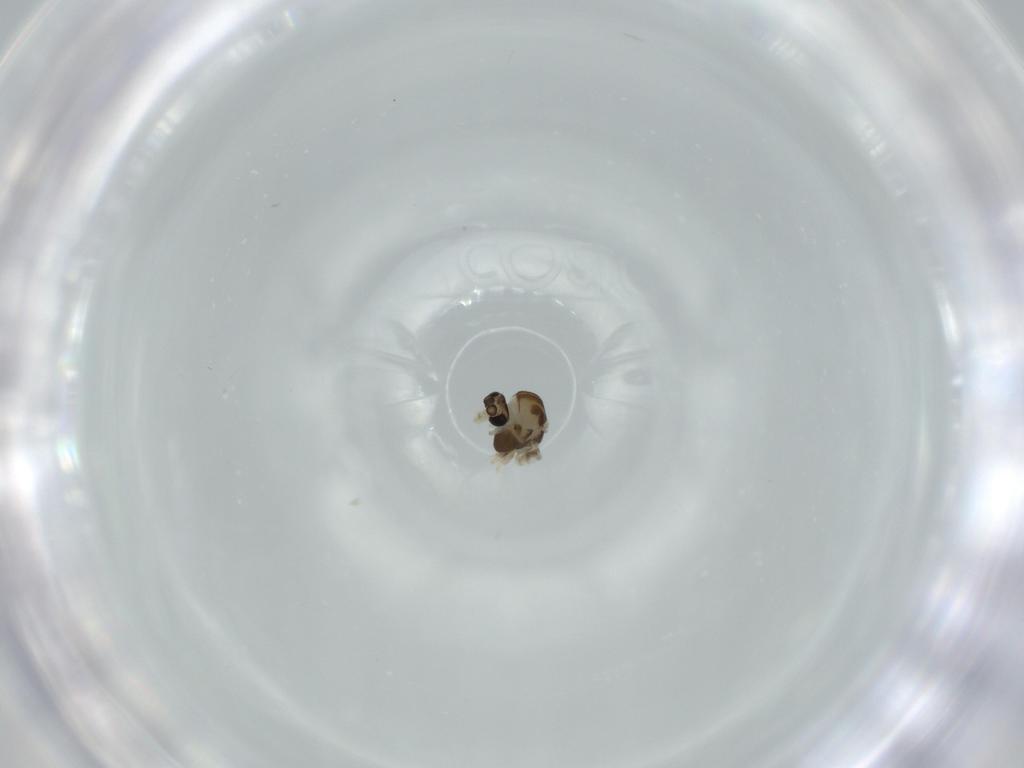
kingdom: Animalia
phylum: Arthropoda
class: Insecta
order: Diptera
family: Chironomidae
